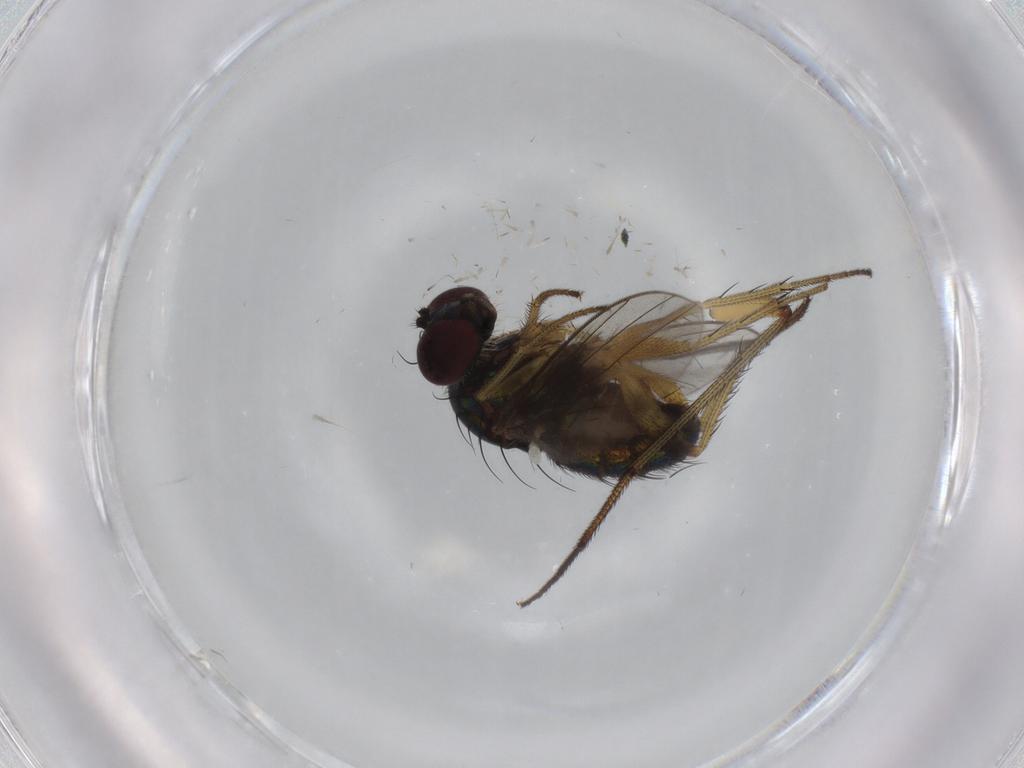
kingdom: Animalia
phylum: Arthropoda
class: Insecta
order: Diptera
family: Dolichopodidae
